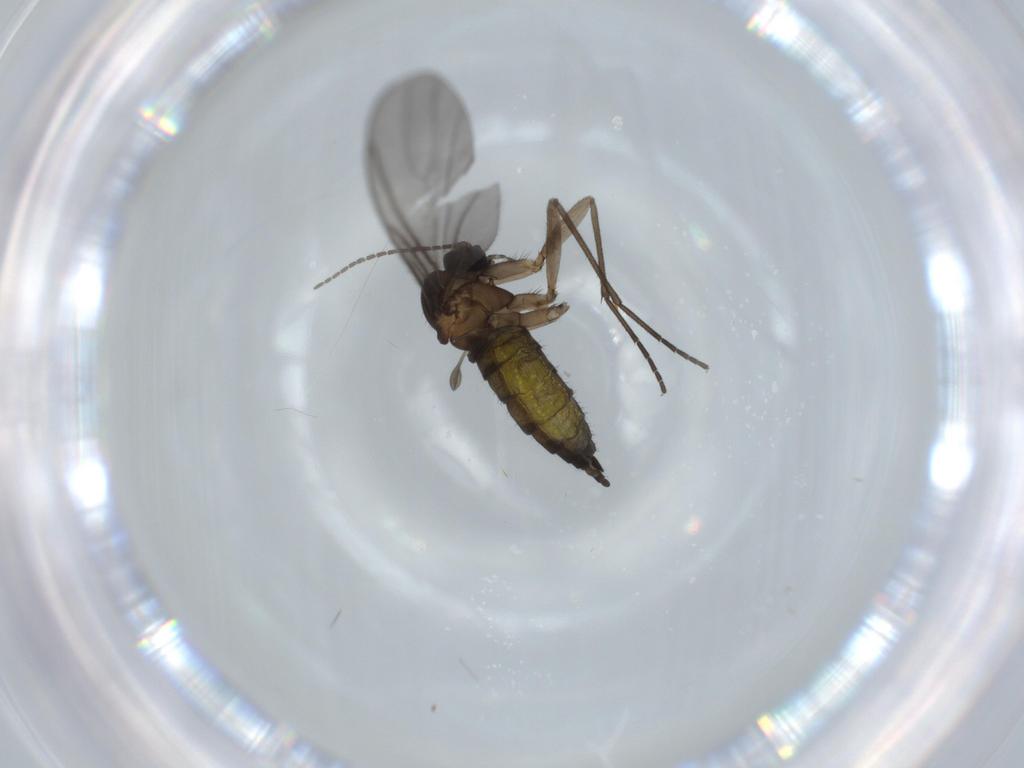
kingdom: Animalia
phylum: Arthropoda
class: Insecta
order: Diptera
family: Sciaridae
